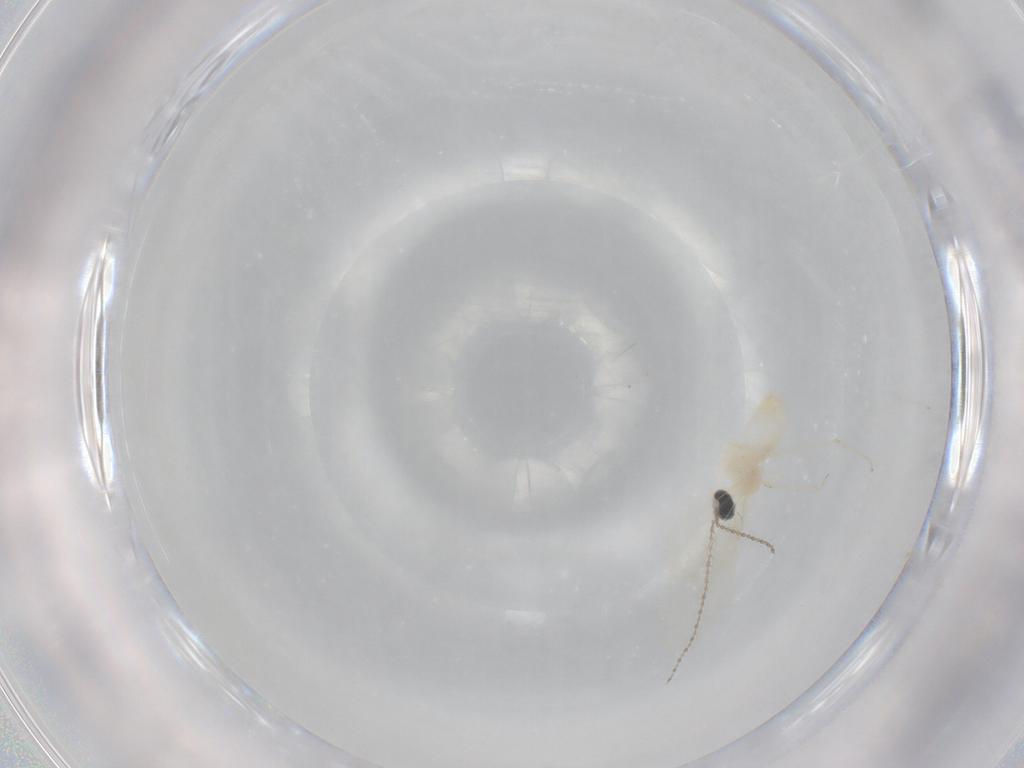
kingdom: Animalia
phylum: Arthropoda
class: Insecta
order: Diptera
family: Cecidomyiidae
